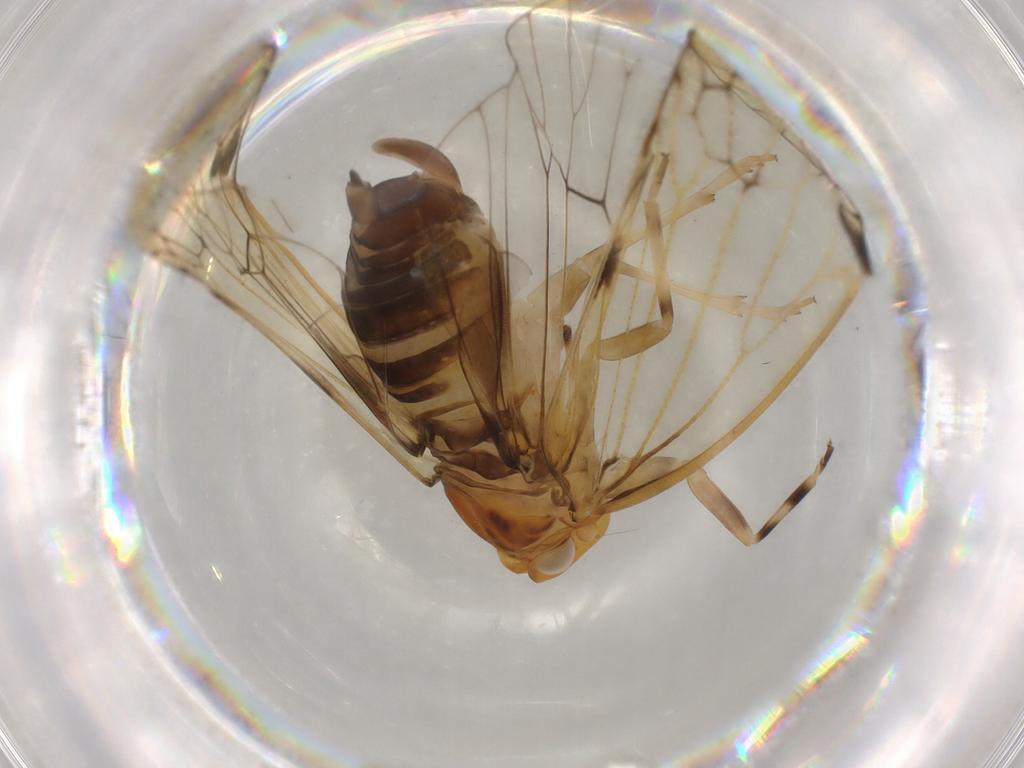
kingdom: Animalia
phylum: Arthropoda
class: Insecta
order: Hemiptera
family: Cixiidae
